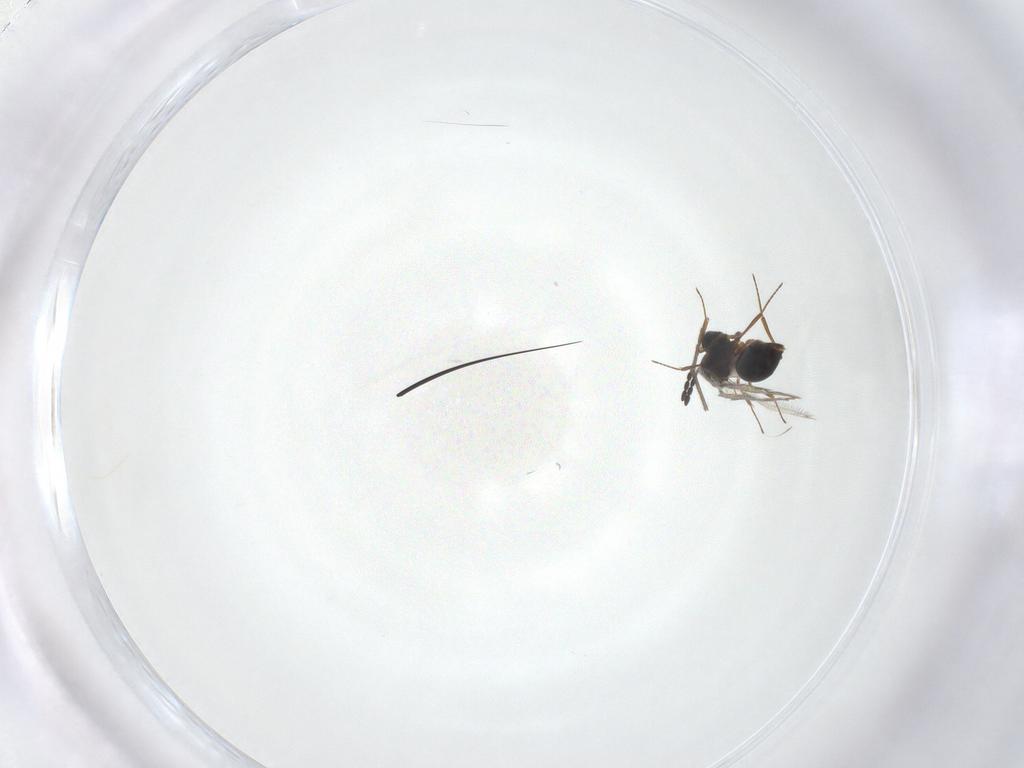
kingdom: Animalia
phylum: Arthropoda
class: Insecta
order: Hymenoptera
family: Figitidae
